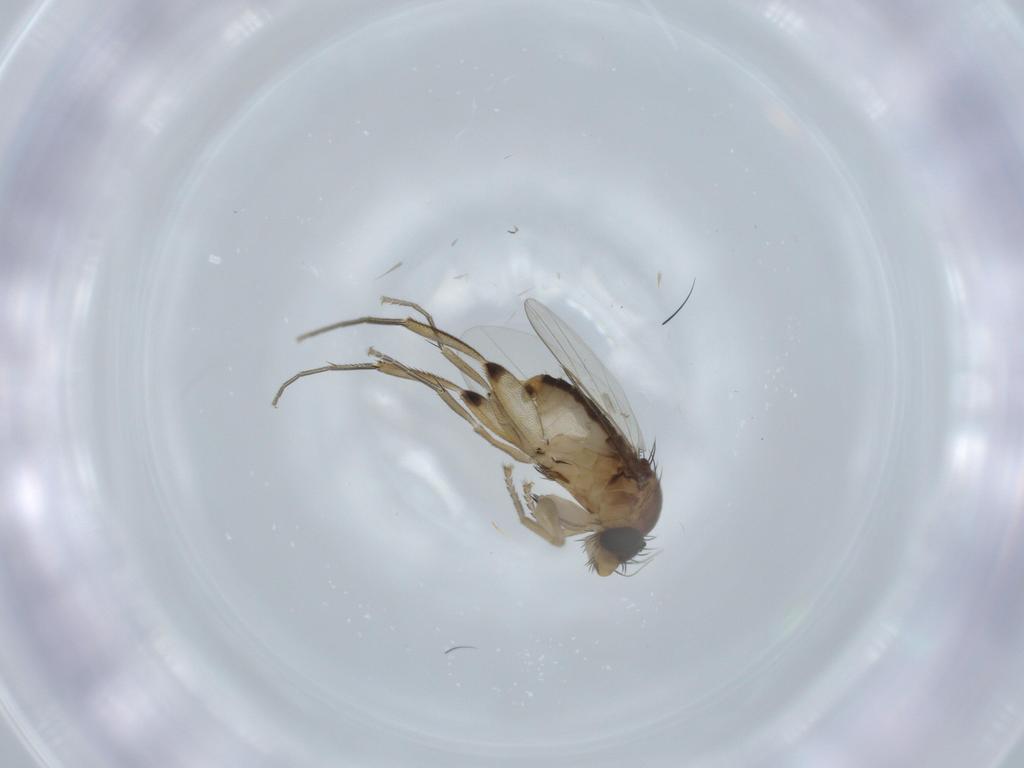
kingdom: Animalia
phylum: Arthropoda
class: Insecta
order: Diptera
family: Phoridae
